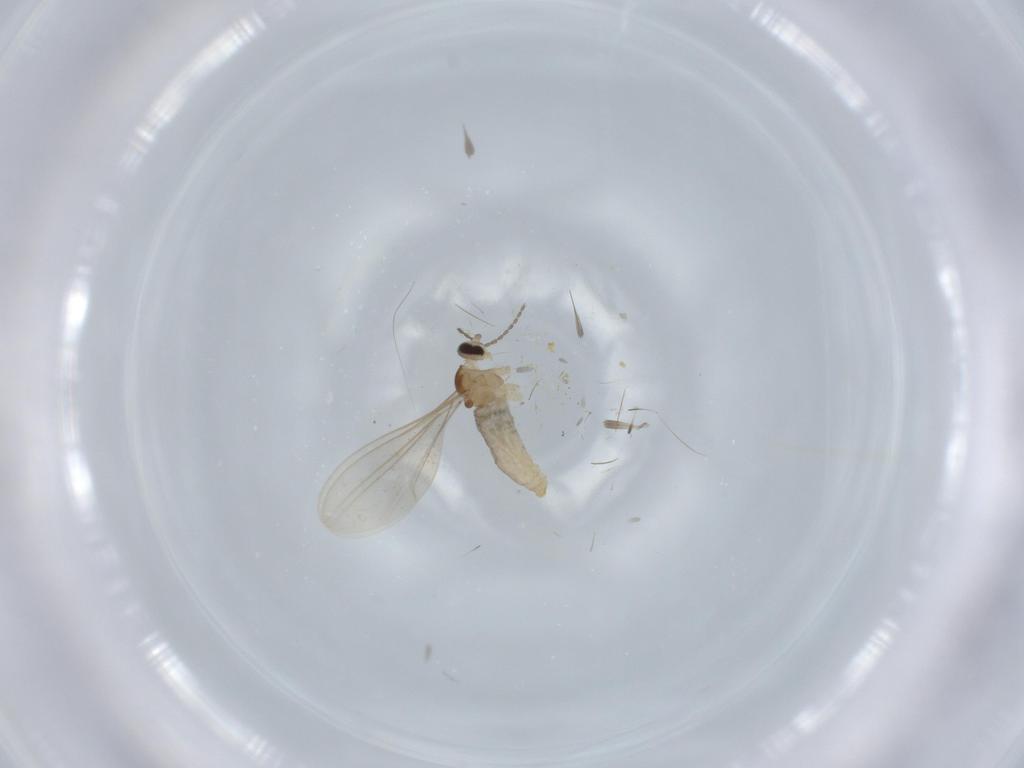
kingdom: Animalia
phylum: Arthropoda
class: Insecta
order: Diptera
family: Cecidomyiidae
